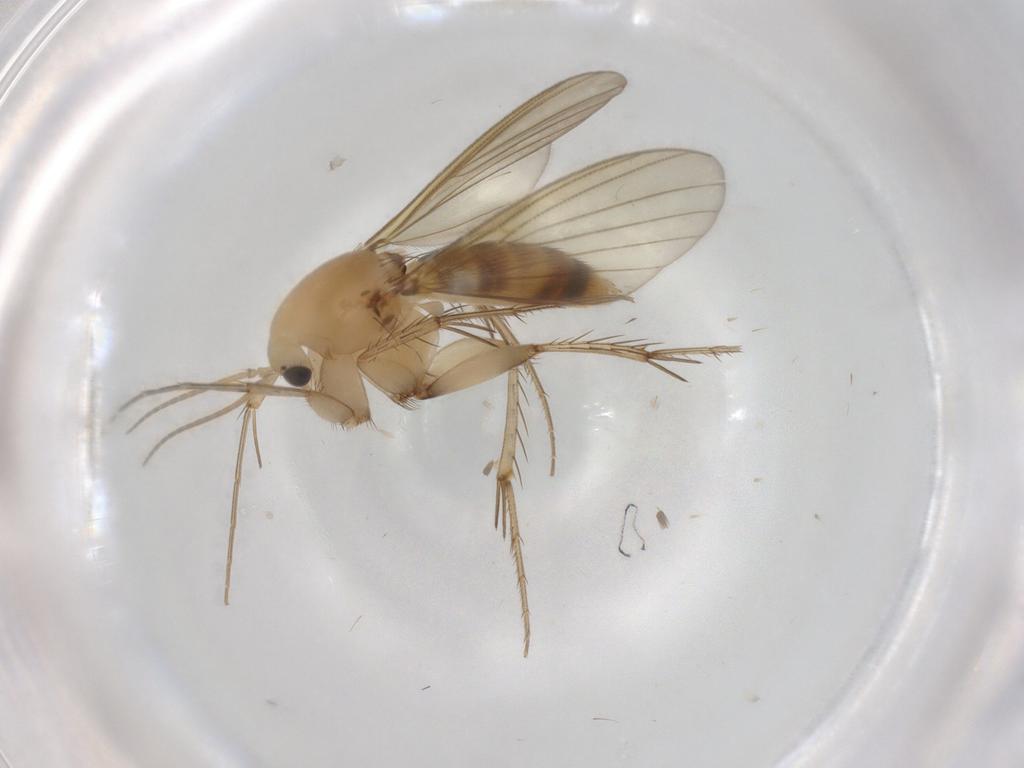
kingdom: Animalia
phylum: Arthropoda
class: Insecta
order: Diptera
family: Mycetophilidae
